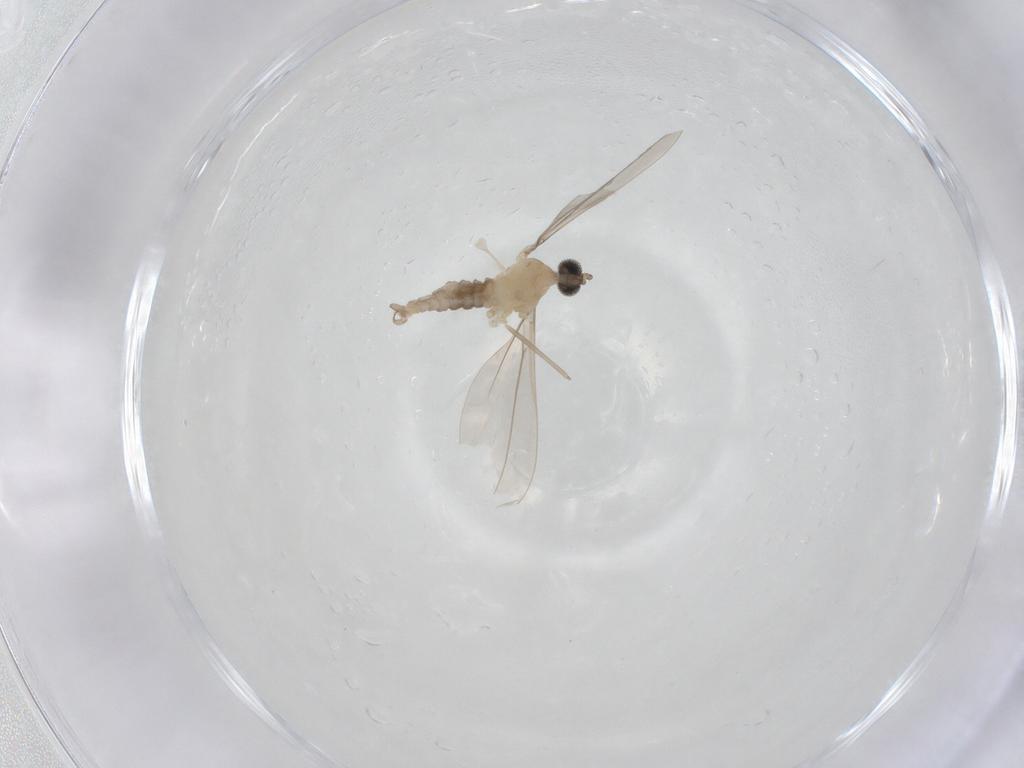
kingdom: Animalia
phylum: Arthropoda
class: Insecta
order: Diptera
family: Cecidomyiidae
